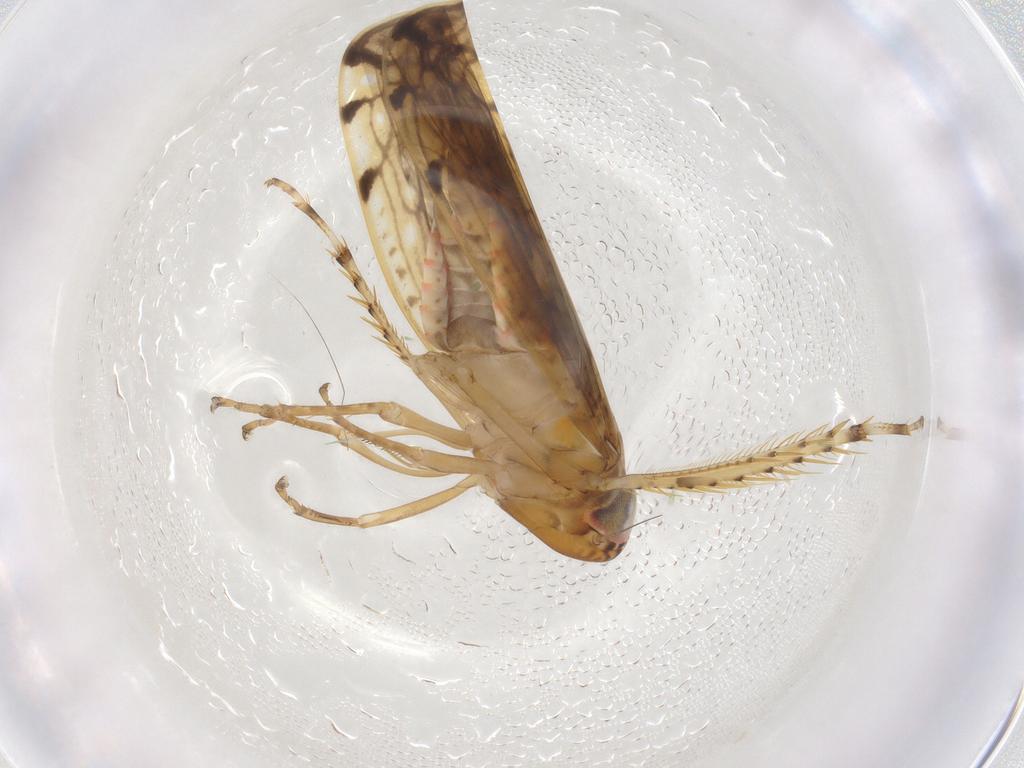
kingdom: Animalia
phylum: Arthropoda
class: Insecta
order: Hemiptera
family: Cicadellidae
